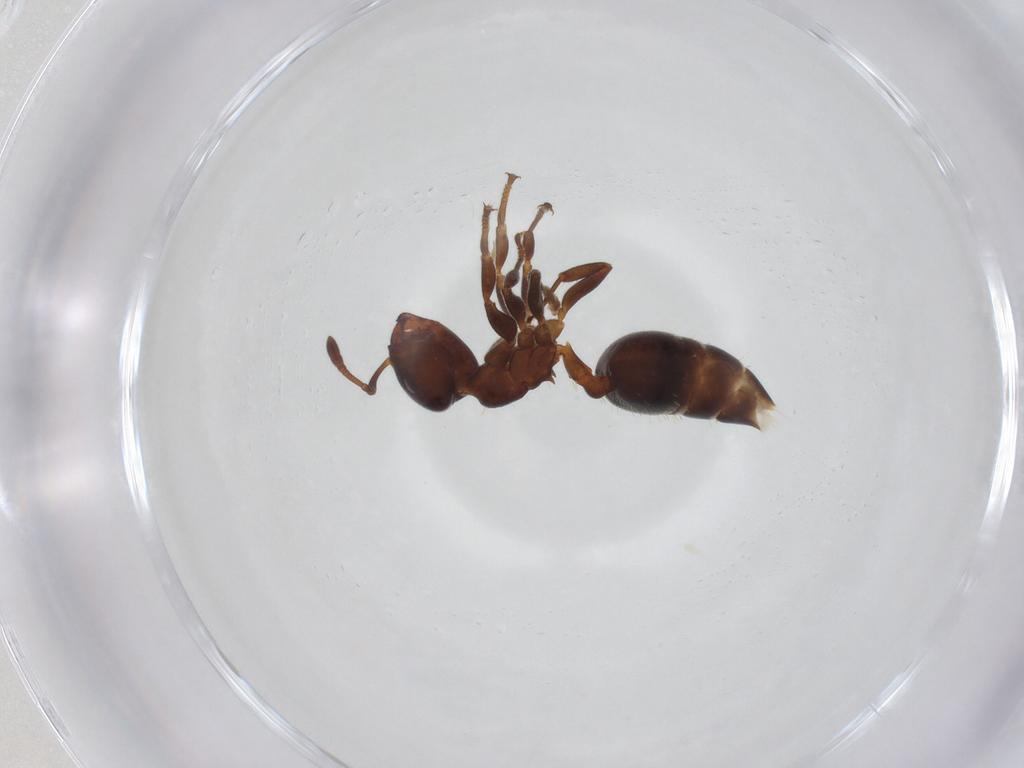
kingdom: Animalia
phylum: Arthropoda
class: Insecta
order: Hymenoptera
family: Formicidae
